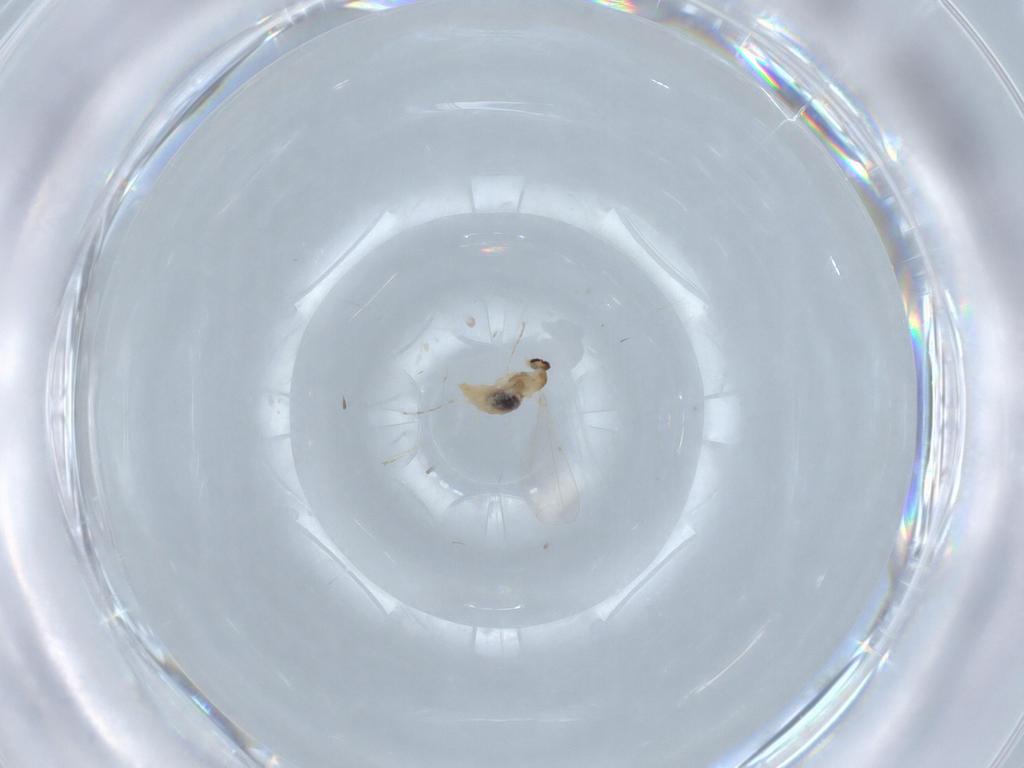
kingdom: Animalia
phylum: Arthropoda
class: Insecta
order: Diptera
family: Cecidomyiidae
